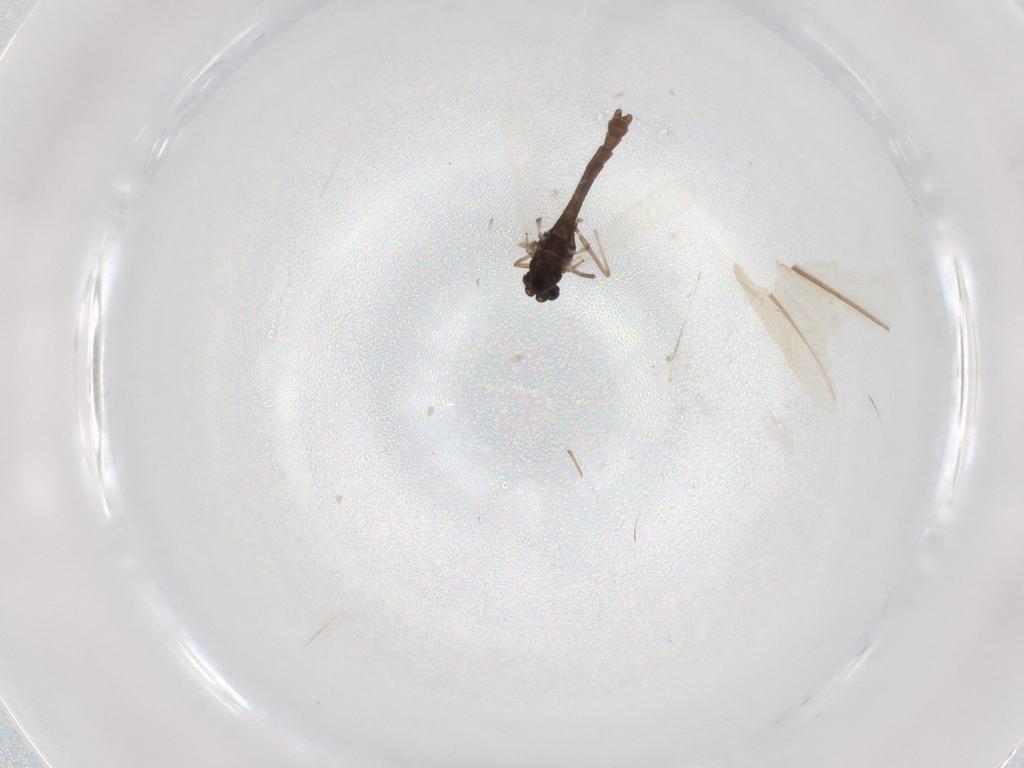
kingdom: Animalia
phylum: Arthropoda
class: Insecta
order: Diptera
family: Chironomidae
